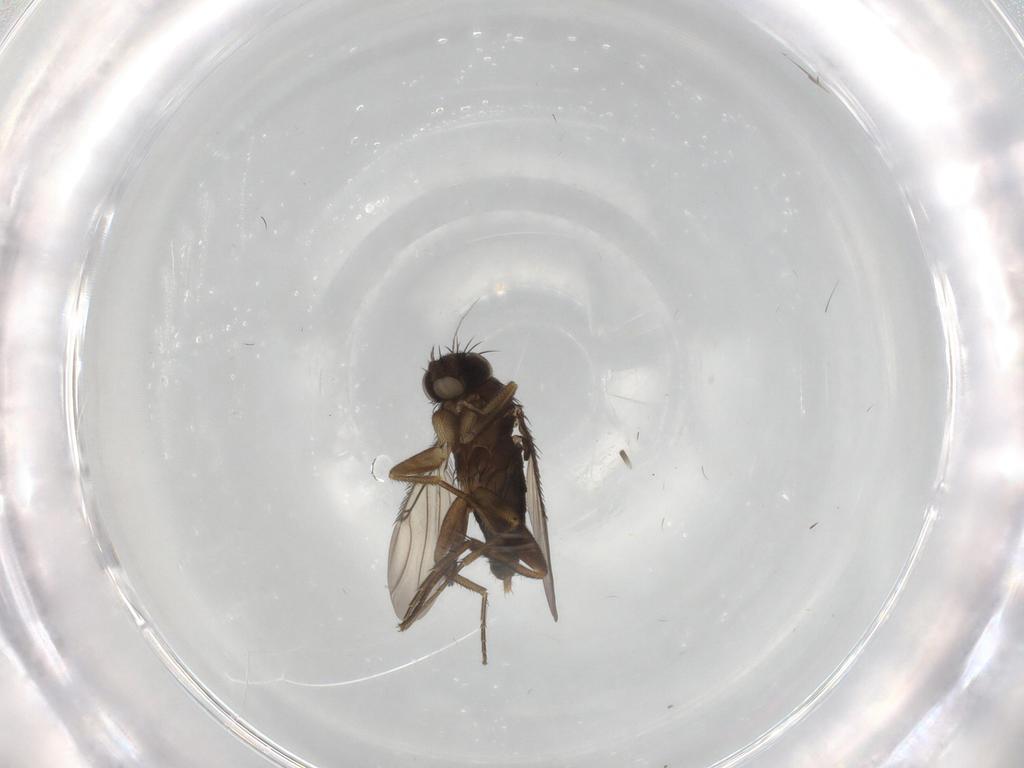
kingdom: Animalia
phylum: Arthropoda
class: Insecta
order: Diptera
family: Phoridae
